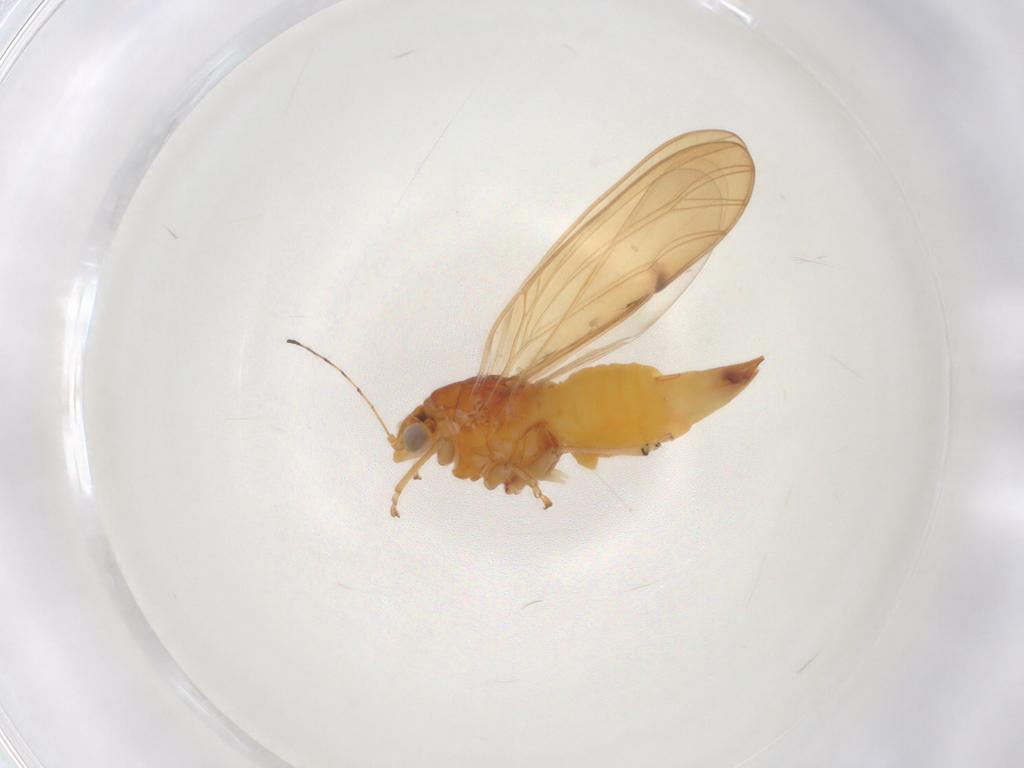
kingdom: Animalia
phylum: Arthropoda
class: Insecta
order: Hemiptera
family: Psylloidea_incertae_sedis
